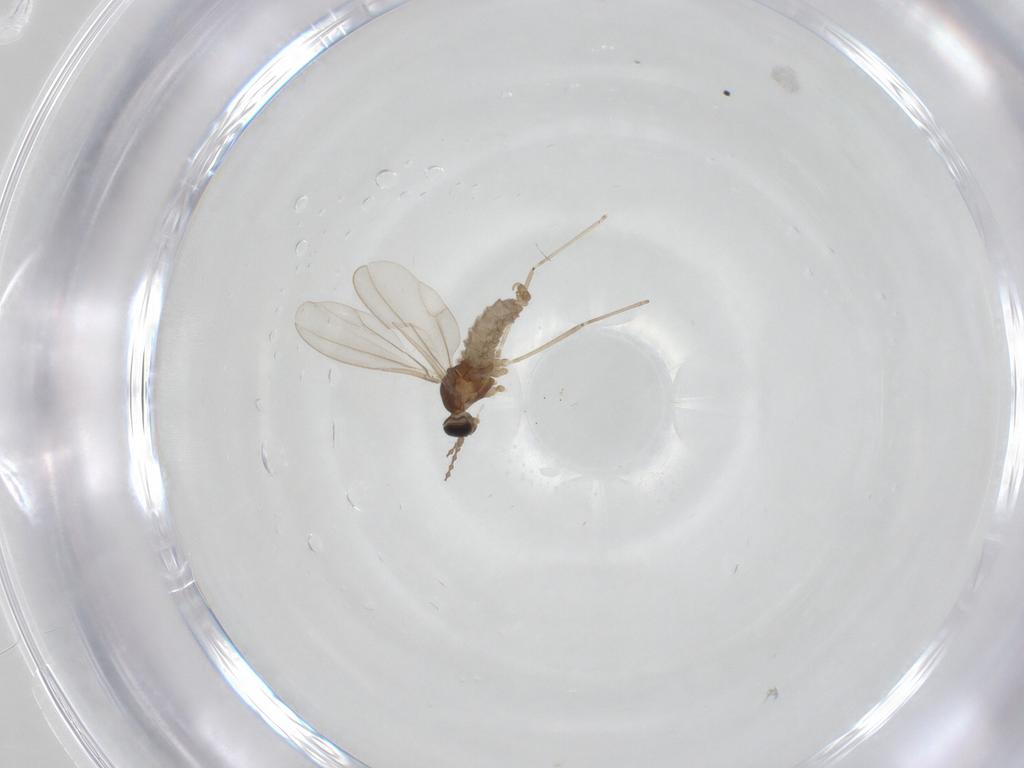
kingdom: Animalia
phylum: Arthropoda
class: Insecta
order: Diptera
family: Cecidomyiidae
